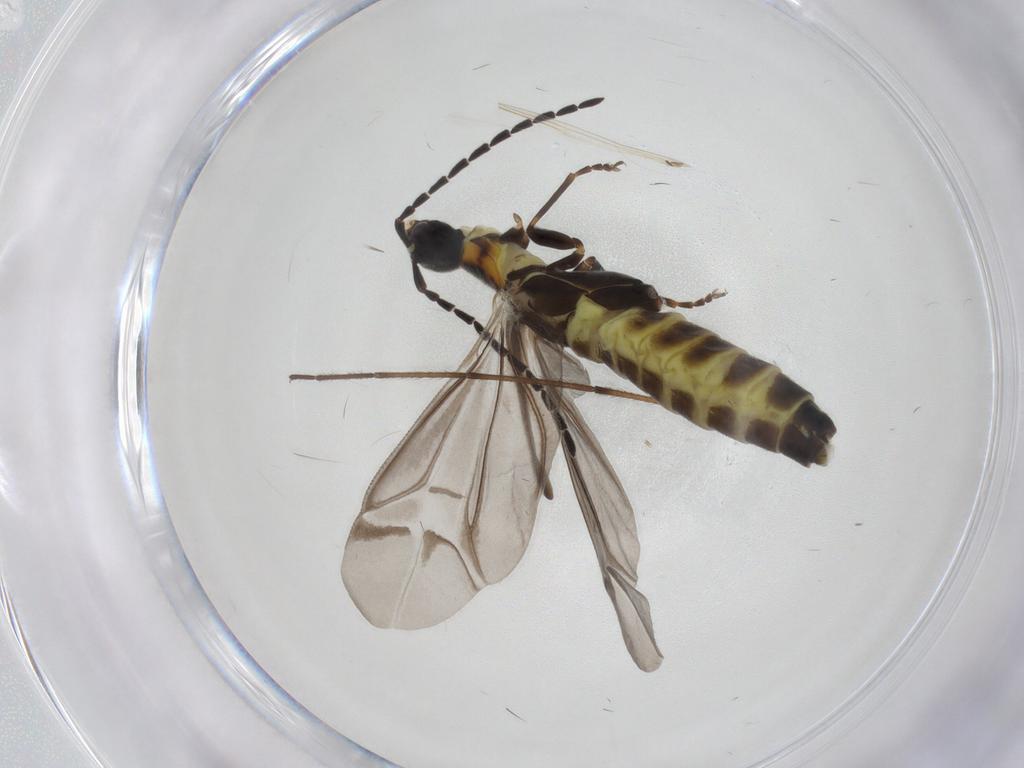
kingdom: Animalia
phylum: Arthropoda
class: Insecta
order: Coleoptera
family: Cantharidae
